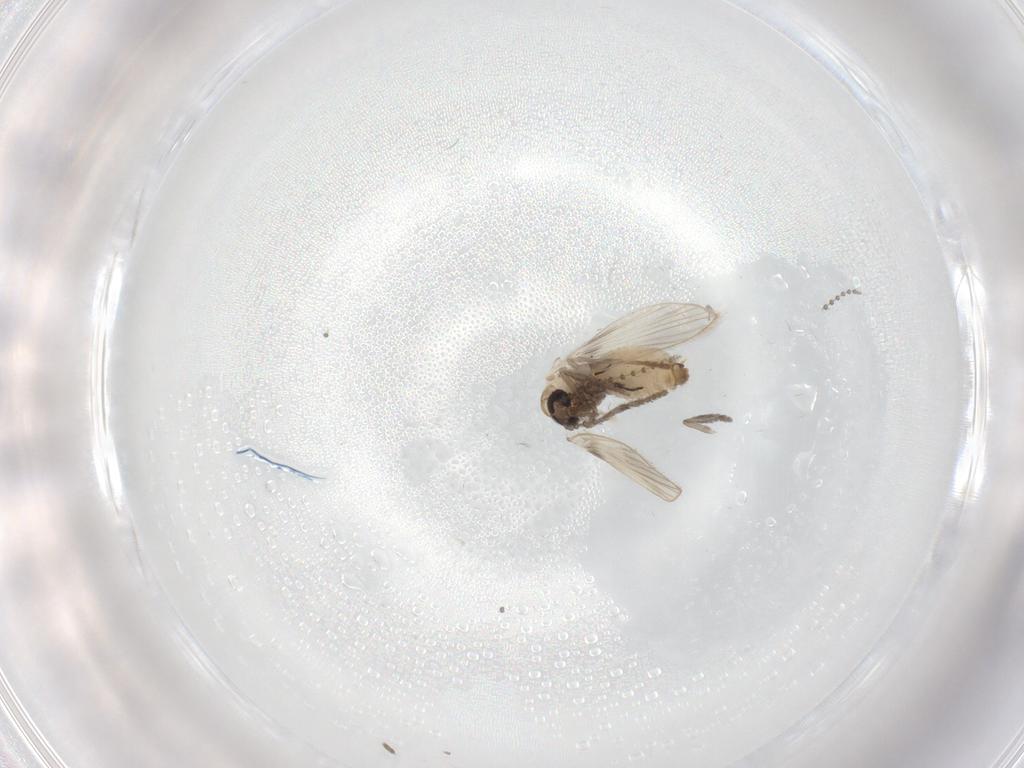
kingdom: Animalia
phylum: Arthropoda
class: Insecta
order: Diptera
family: Psychodidae
